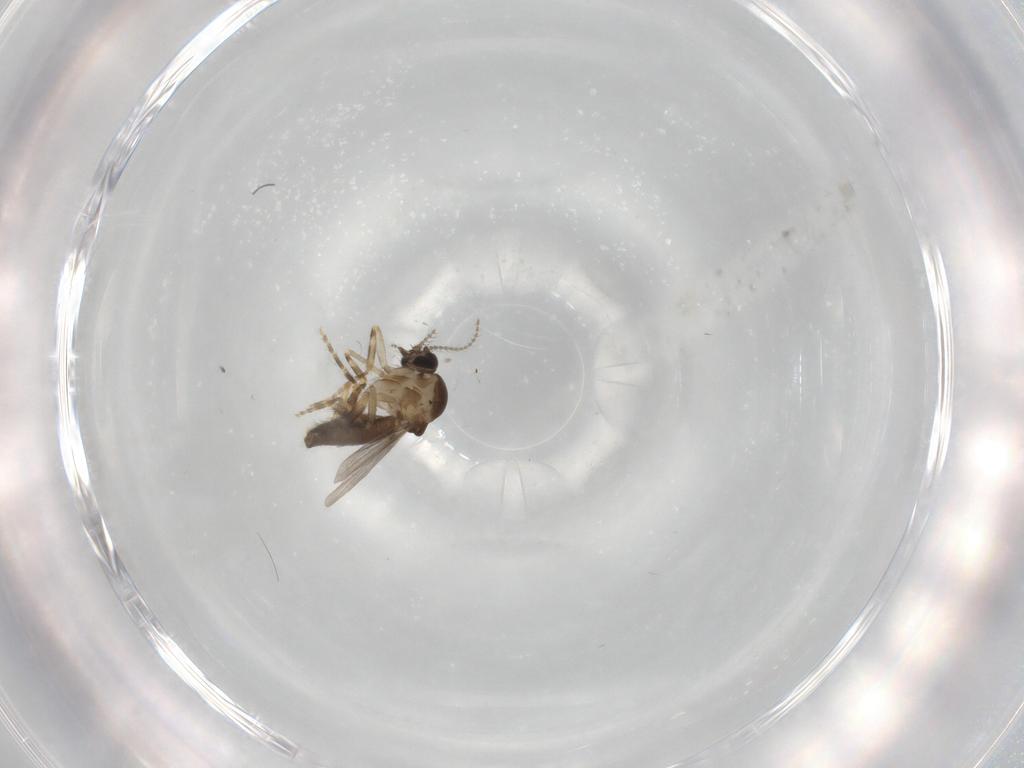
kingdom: Animalia
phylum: Arthropoda
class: Insecta
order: Diptera
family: Ceratopogonidae
